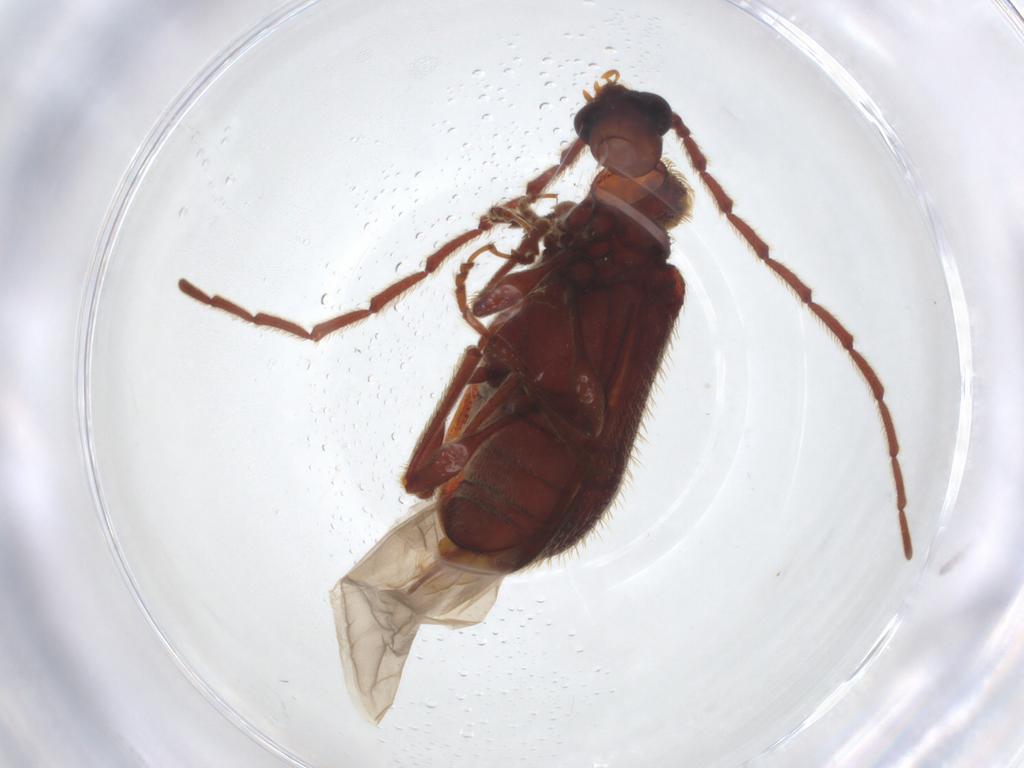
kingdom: Animalia
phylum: Arthropoda
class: Insecta
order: Coleoptera
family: Ptinidae
